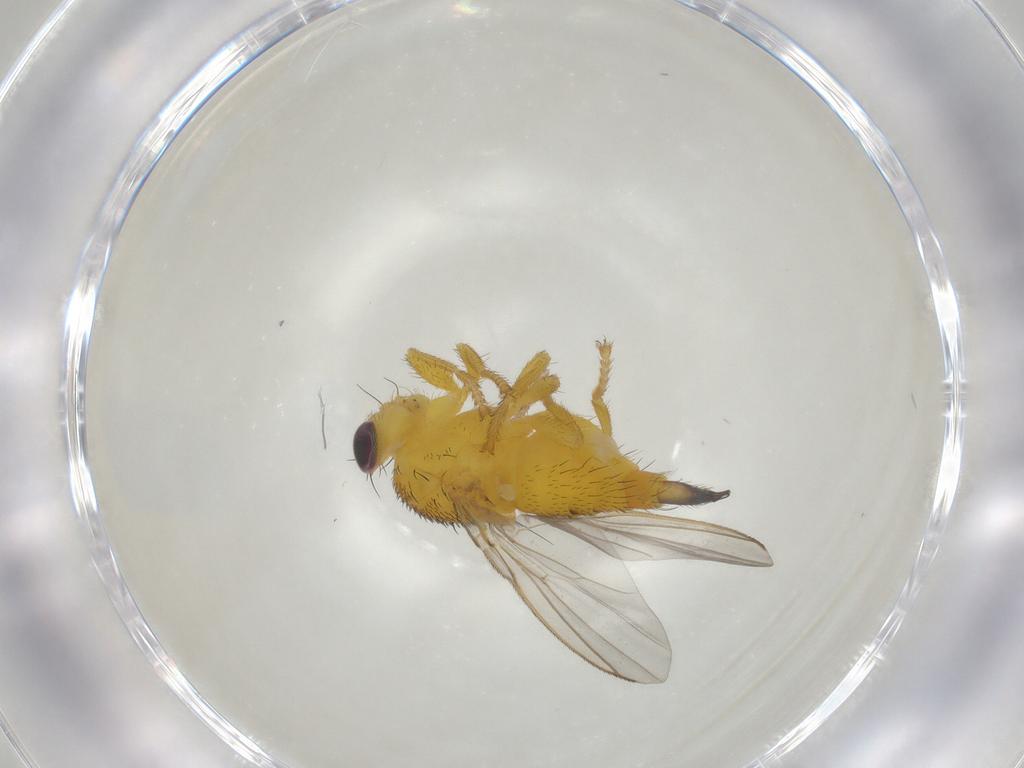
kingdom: Animalia
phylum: Arthropoda
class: Insecta
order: Diptera
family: Fergusoninidae
